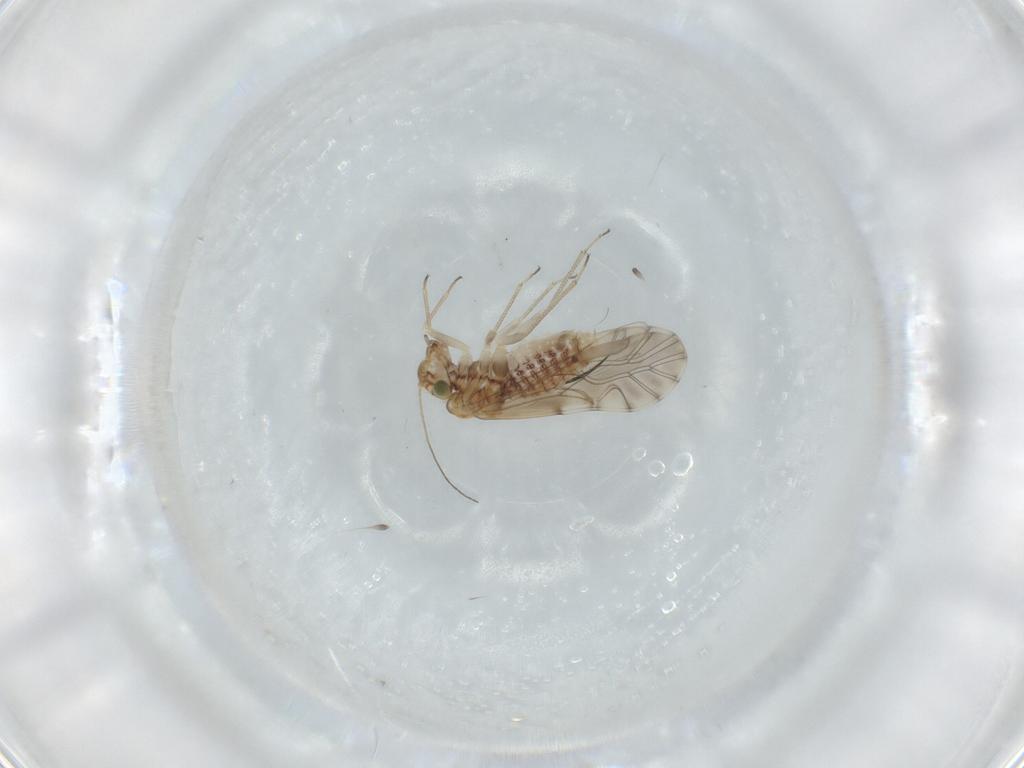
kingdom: Animalia
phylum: Arthropoda
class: Insecta
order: Psocodea
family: Lachesillidae
